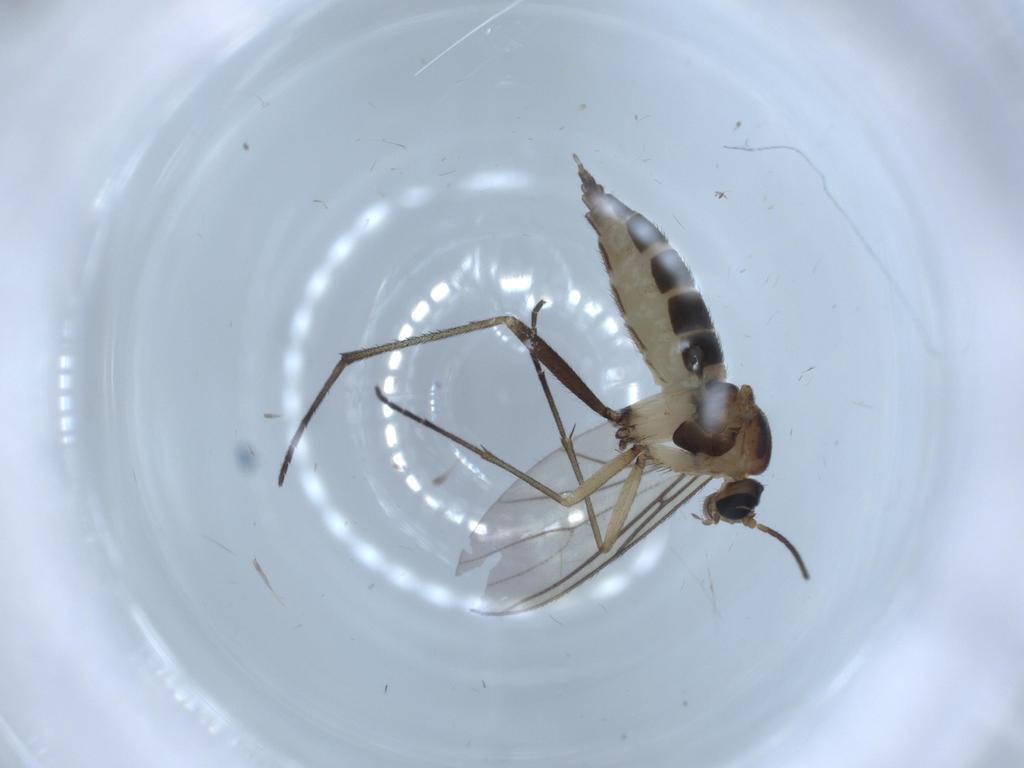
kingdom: Animalia
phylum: Arthropoda
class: Insecta
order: Diptera
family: Sciaridae
